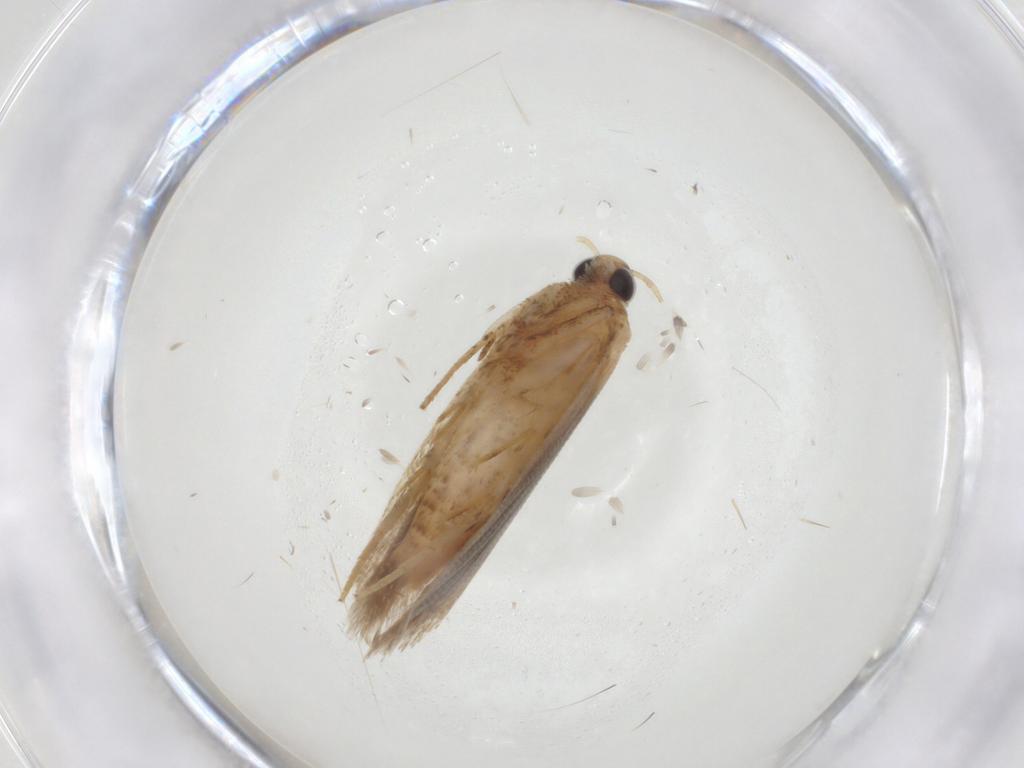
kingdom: Animalia
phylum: Arthropoda
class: Insecta
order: Lepidoptera
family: Gelechiidae
